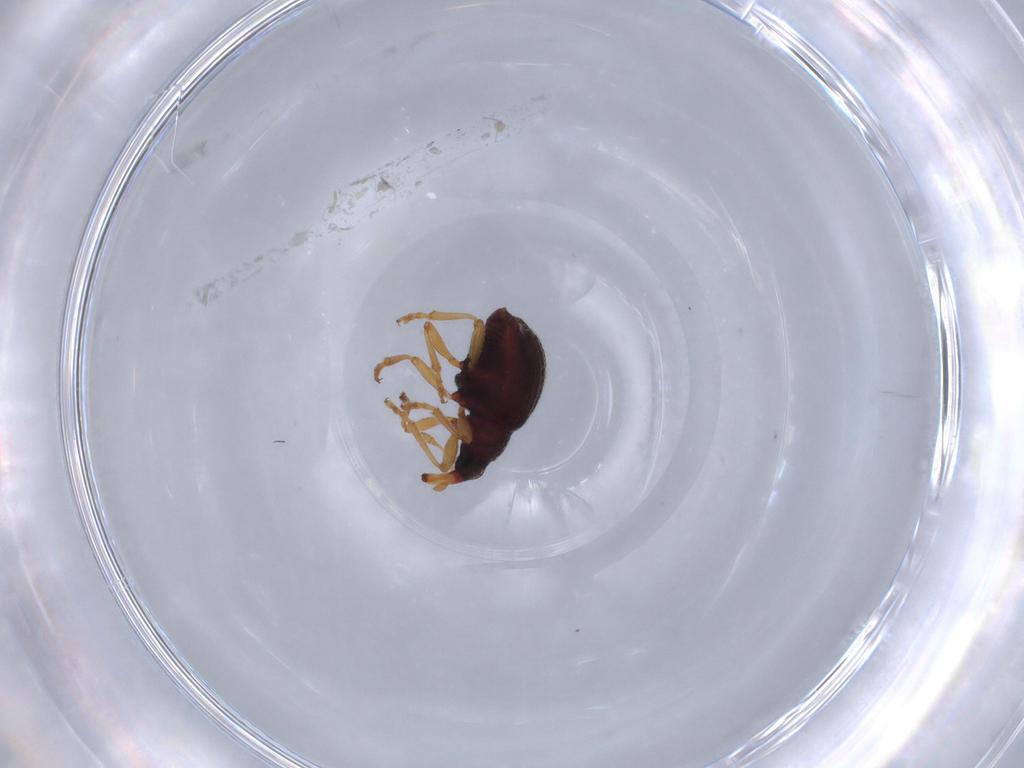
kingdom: Animalia
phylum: Arthropoda
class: Insecta
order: Coleoptera
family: Brentidae
